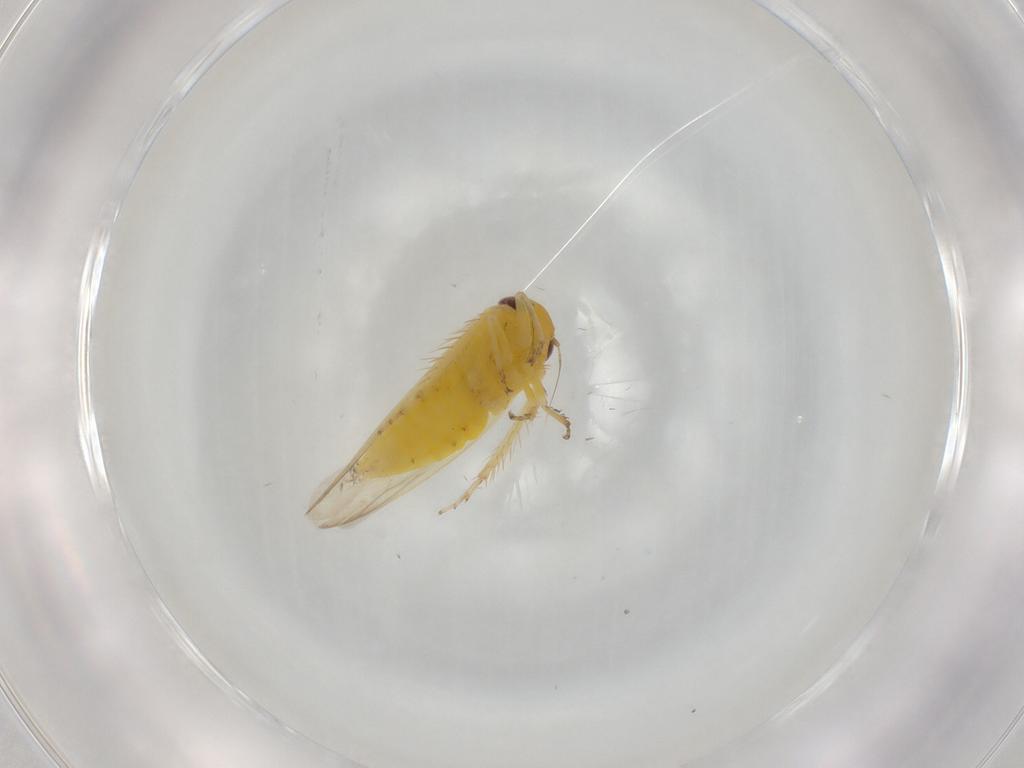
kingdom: Animalia
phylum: Arthropoda
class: Insecta
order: Hemiptera
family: Cicadellidae
